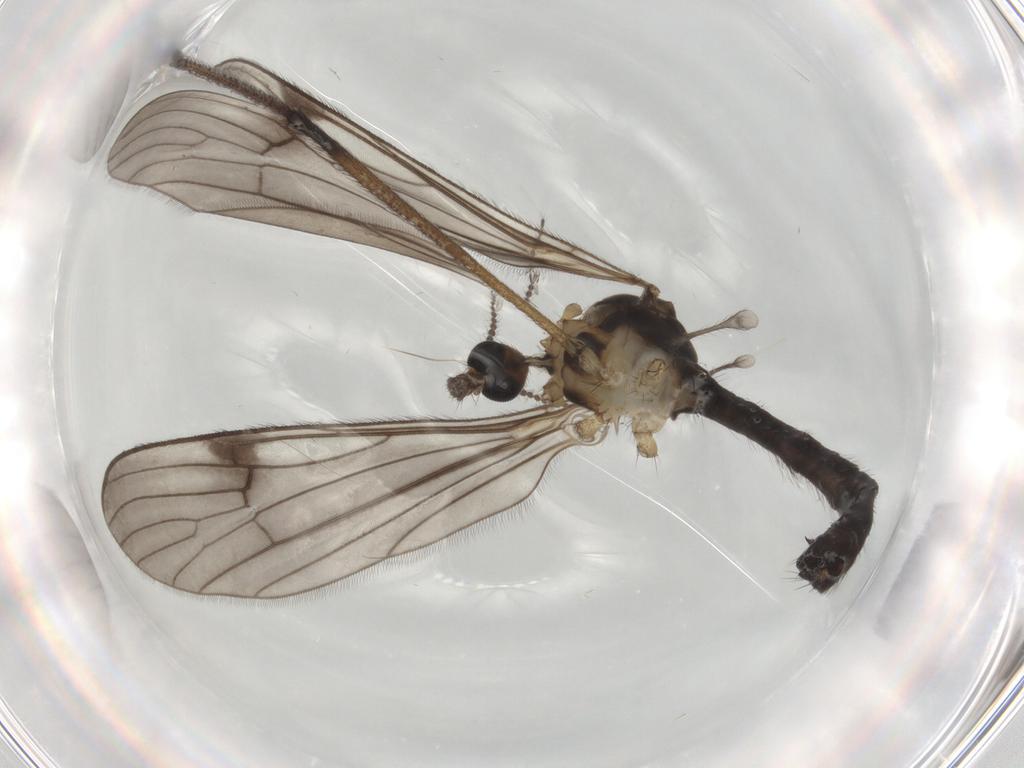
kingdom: Animalia
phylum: Arthropoda
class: Insecta
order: Diptera
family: Limoniidae
